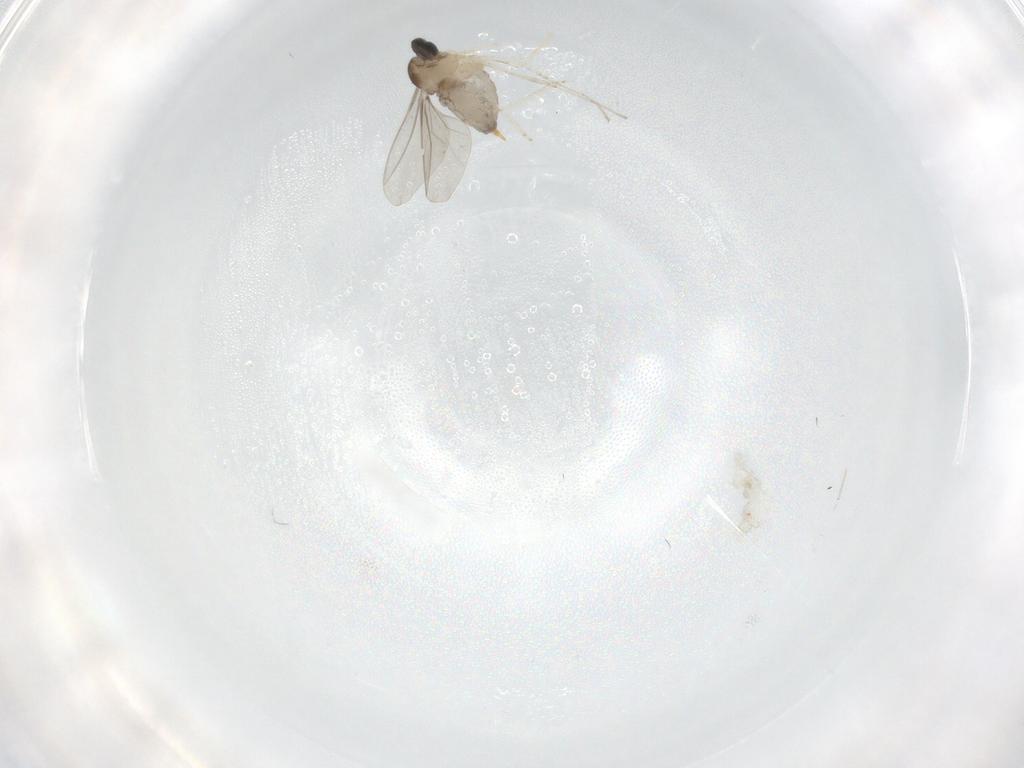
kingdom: Animalia
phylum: Arthropoda
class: Insecta
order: Diptera
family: Cecidomyiidae
